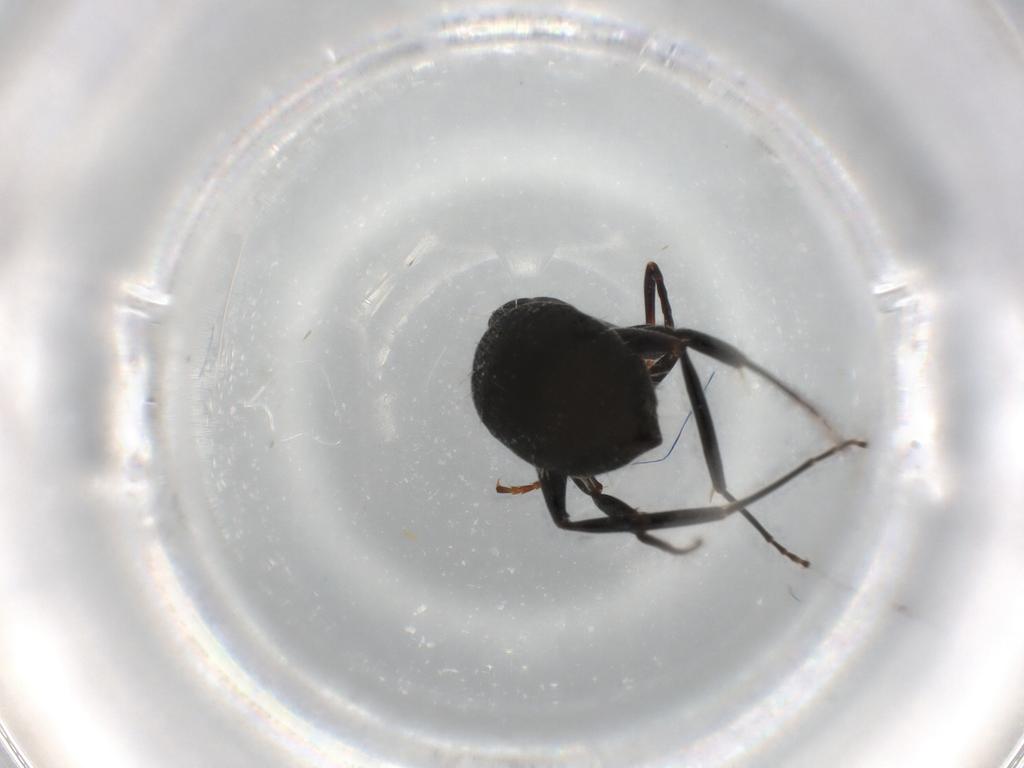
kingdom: Animalia
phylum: Arthropoda
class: Insecta
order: Hymenoptera
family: Formicidae
